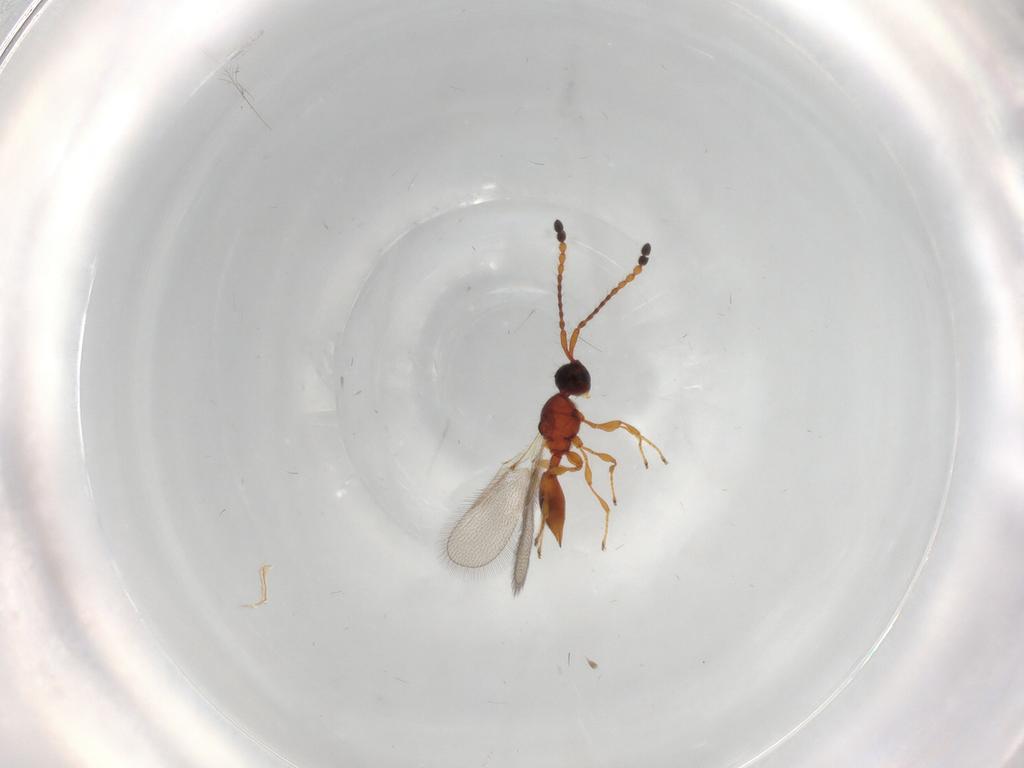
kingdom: Animalia
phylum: Arthropoda
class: Insecta
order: Hymenoptera
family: Diapriidae
